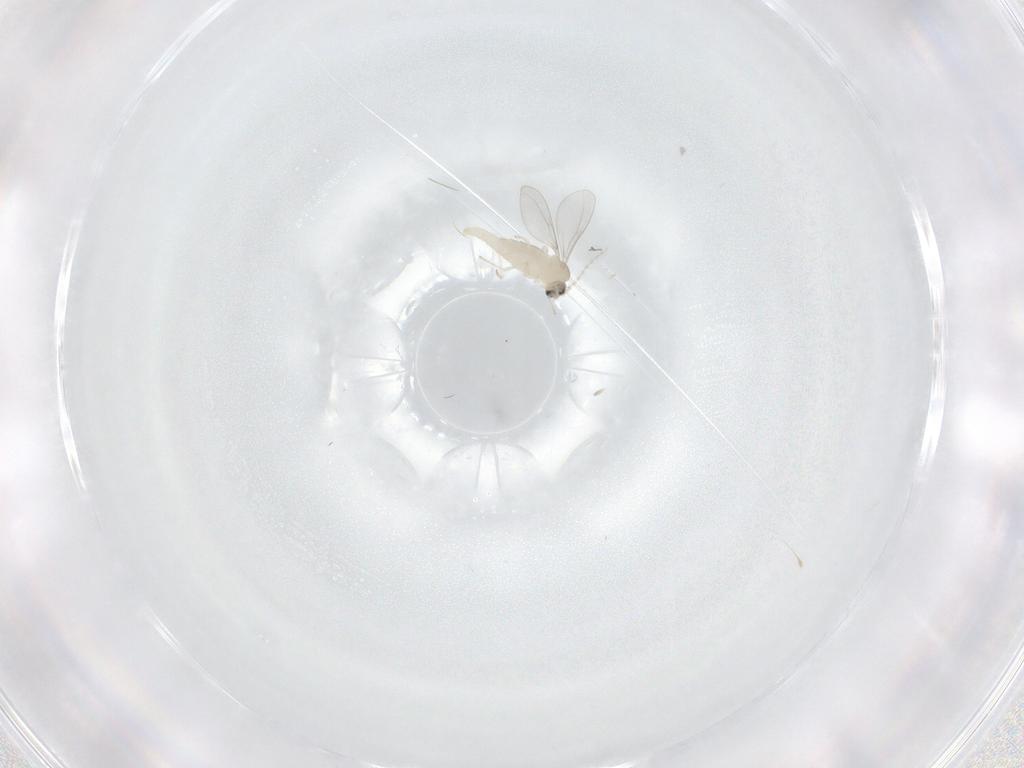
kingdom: Animalia
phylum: Arthropoda
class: Insecta
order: Diptera
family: Cecidomyiidae
